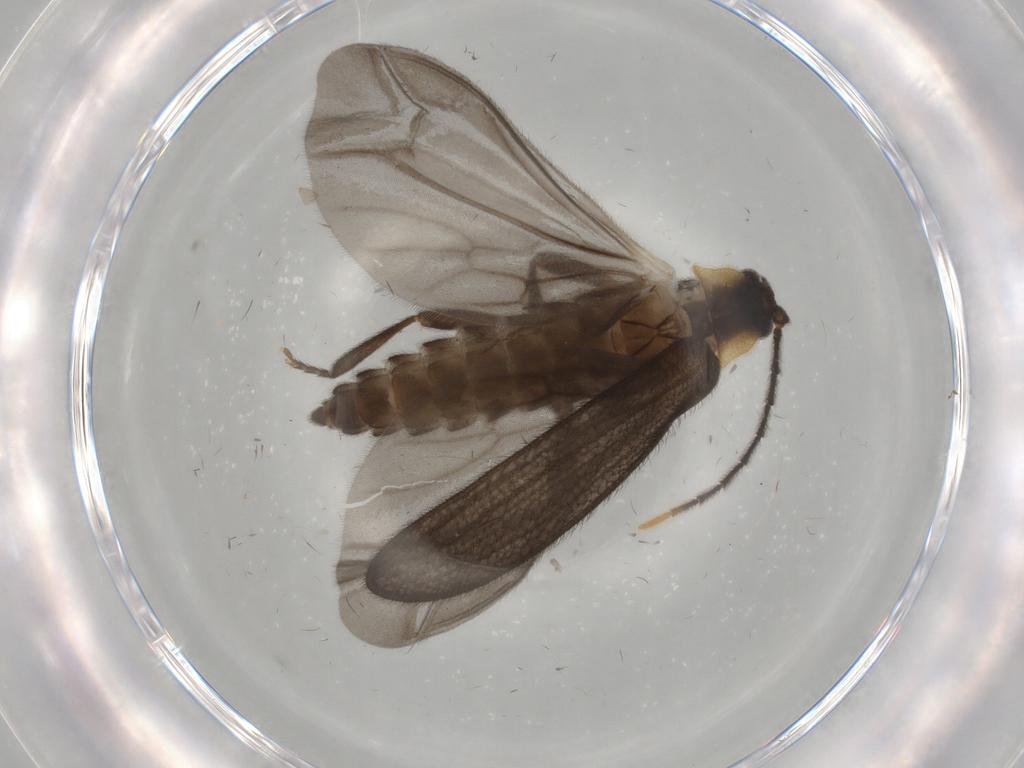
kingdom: Animalia
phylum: Arthropoda
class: Insecta
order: Coleoptera
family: Lycidae
